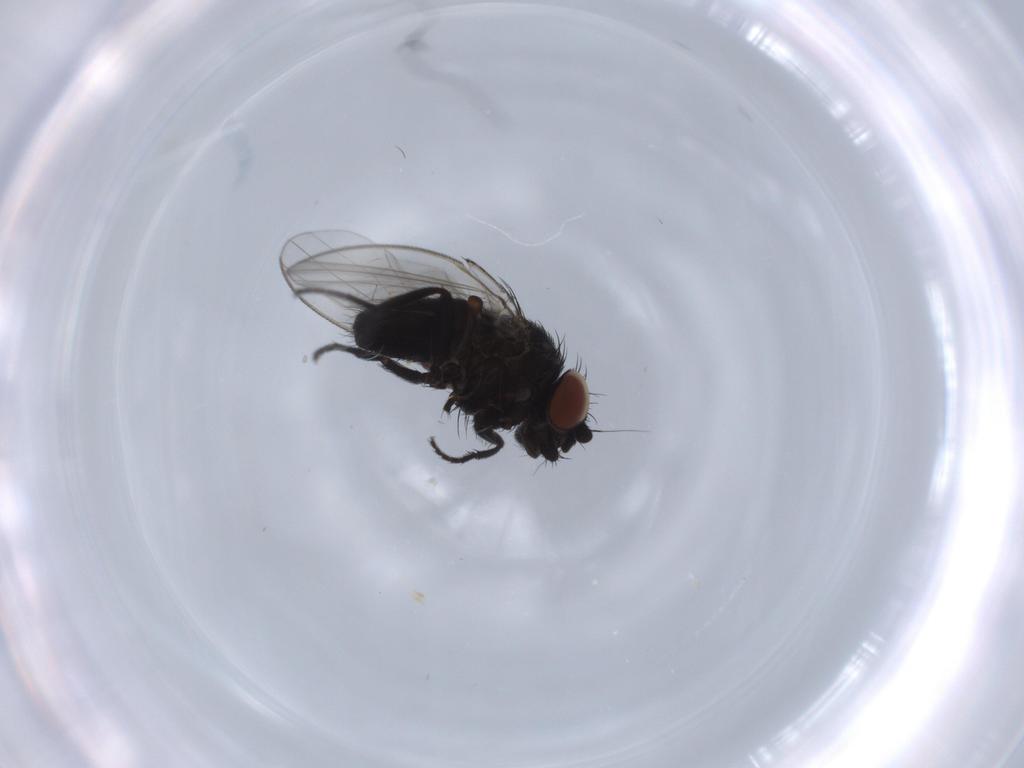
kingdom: Animalia
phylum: Arthropoda
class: Insecta
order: Diptera
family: Milichiidae
